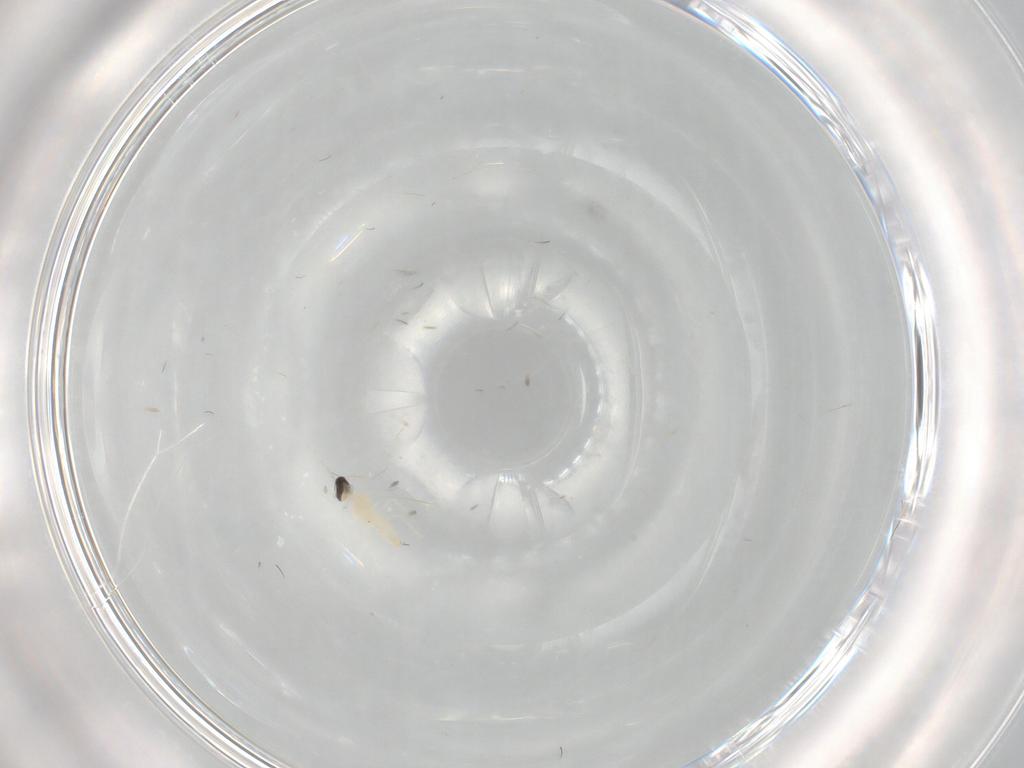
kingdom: Animalia
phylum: Arthropoda
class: Insecta
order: Diptera
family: Cecidomyiidae
